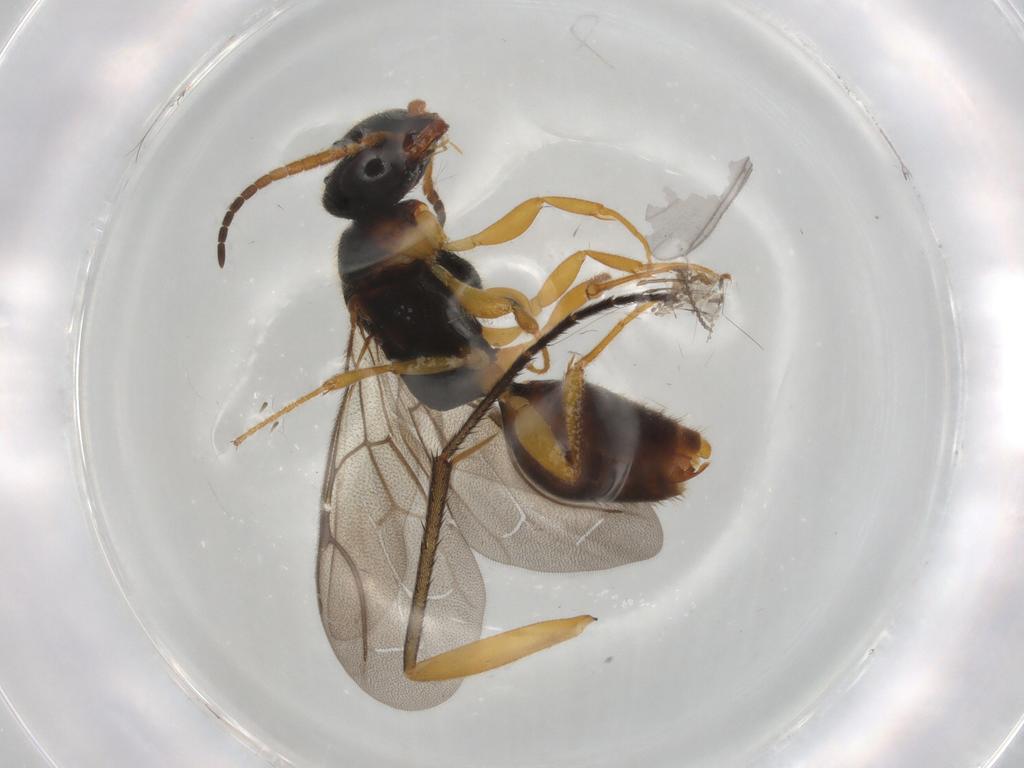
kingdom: Animalia
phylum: Arthropoda
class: Insecta
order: Hymenoptera
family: Bethylidae
